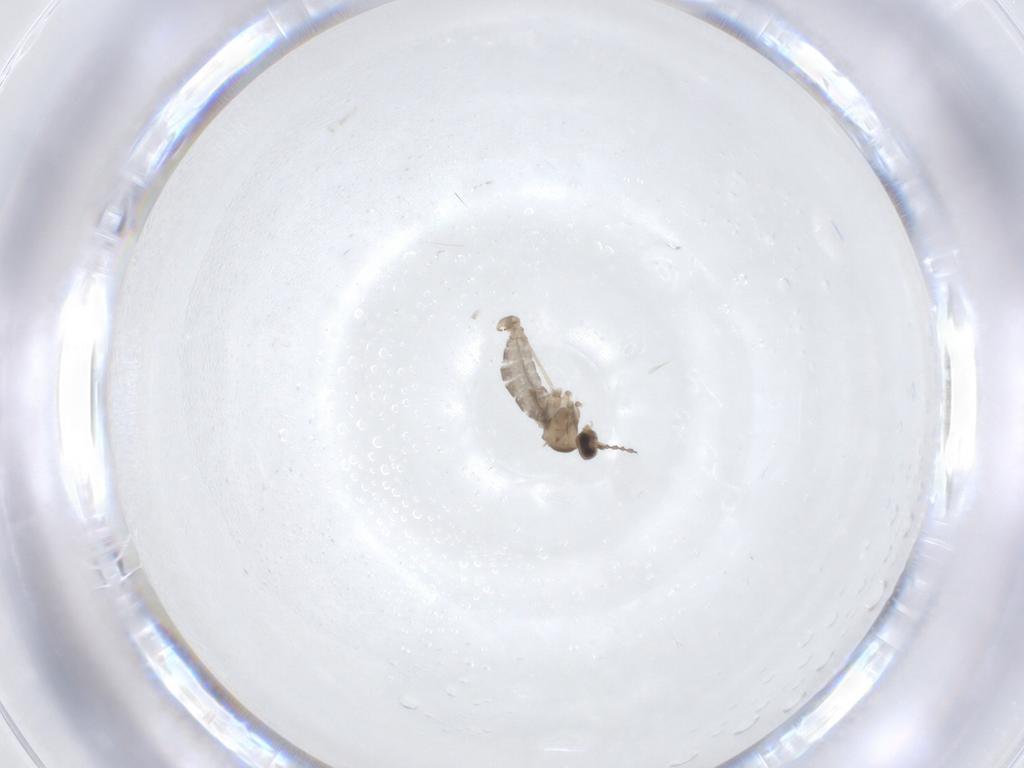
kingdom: Animalia
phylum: Arthropoda
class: Insecta
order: Diptera
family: Cecidomyiidae
